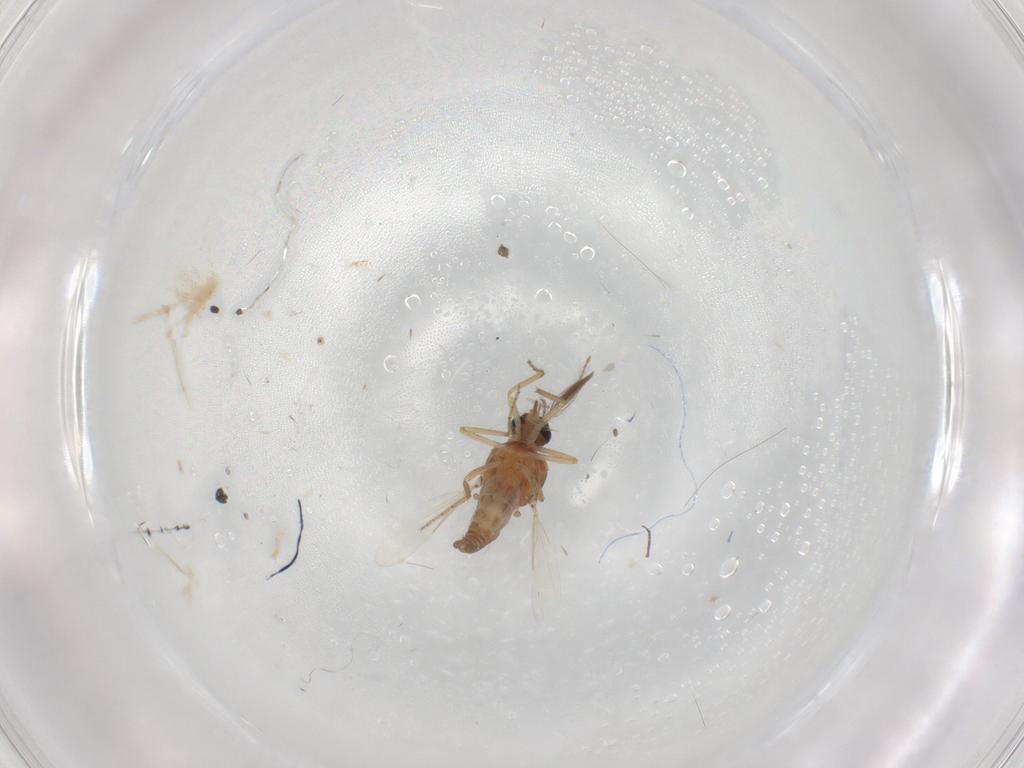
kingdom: Animalia
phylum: Arthropoda
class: Insecta
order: Diptera
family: Ceratopogonidae
